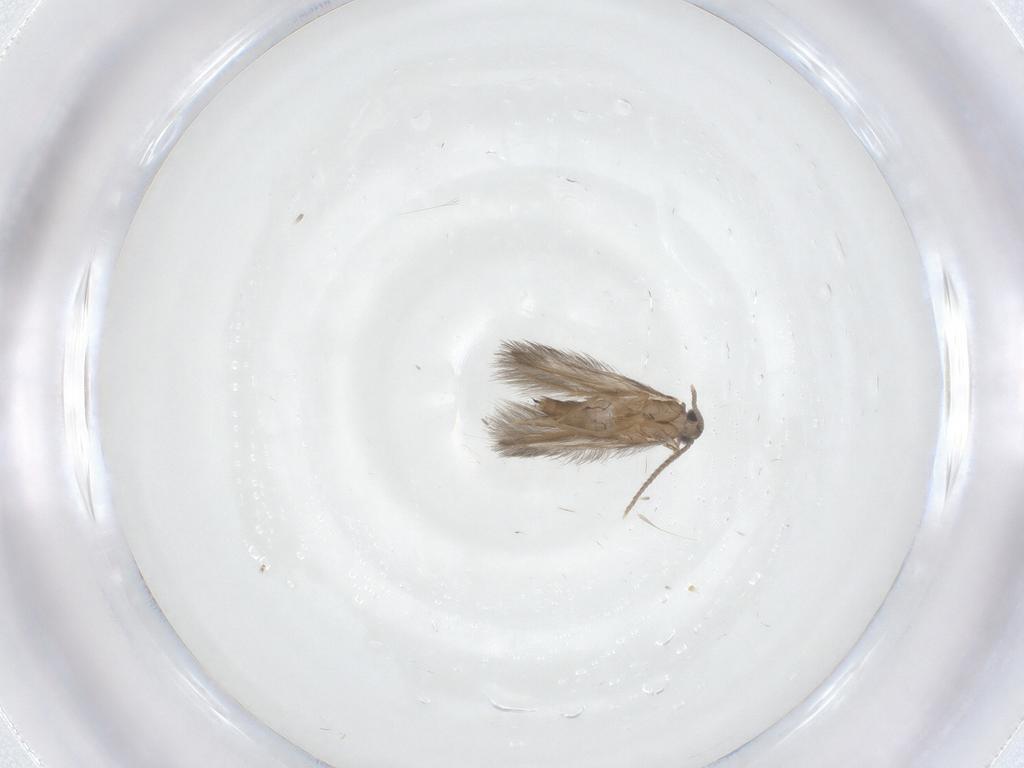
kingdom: Animalia
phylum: Arthropoda
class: Insecta
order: Trichoptera
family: Hydroptilidae
